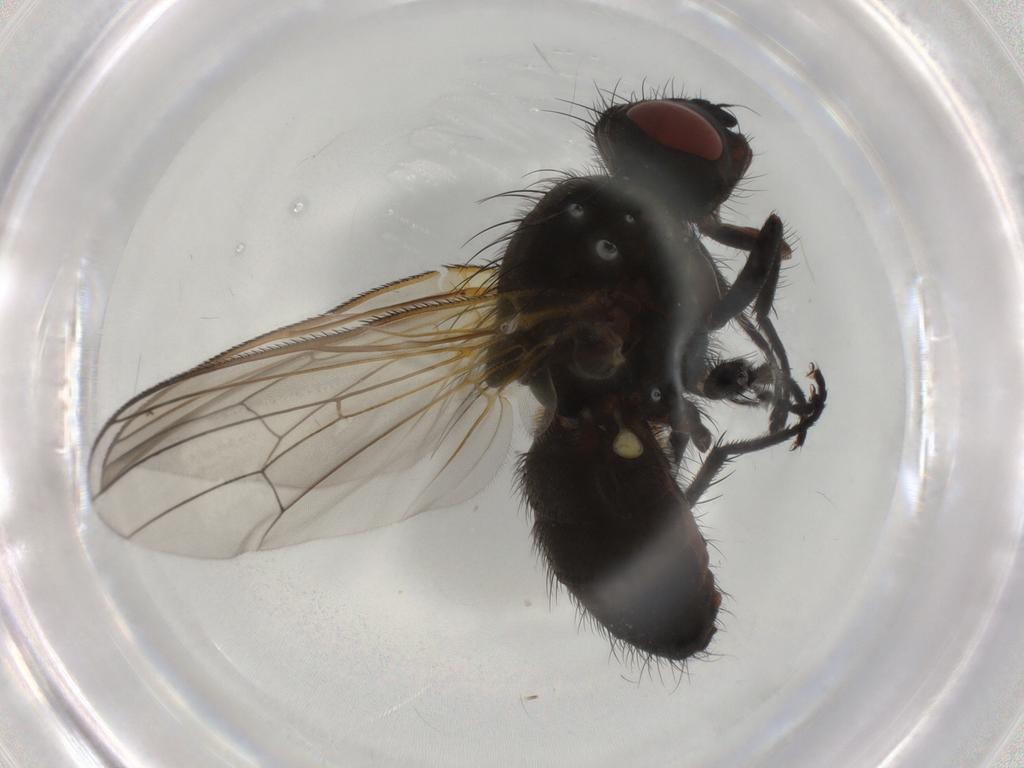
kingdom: Animalia
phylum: Arthropoda
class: Insecta
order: Diptera
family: Anthomyiidae
